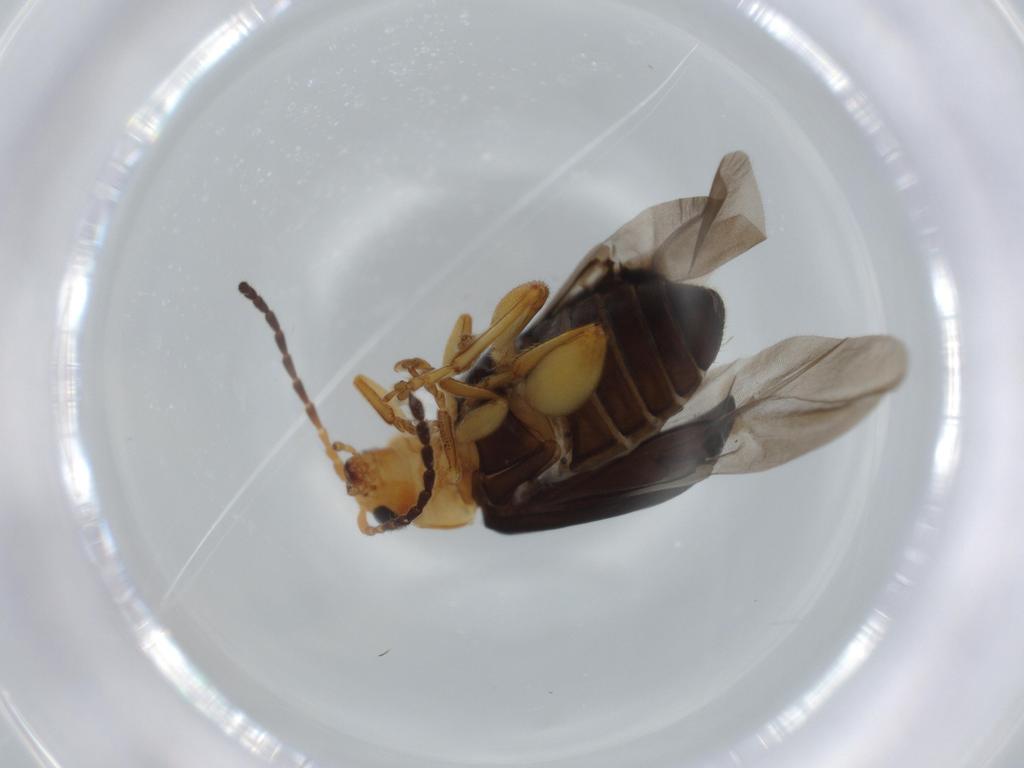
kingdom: Animalia
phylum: Arthropoda
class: Insecta
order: Coleoptera
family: Chrysomelidae
